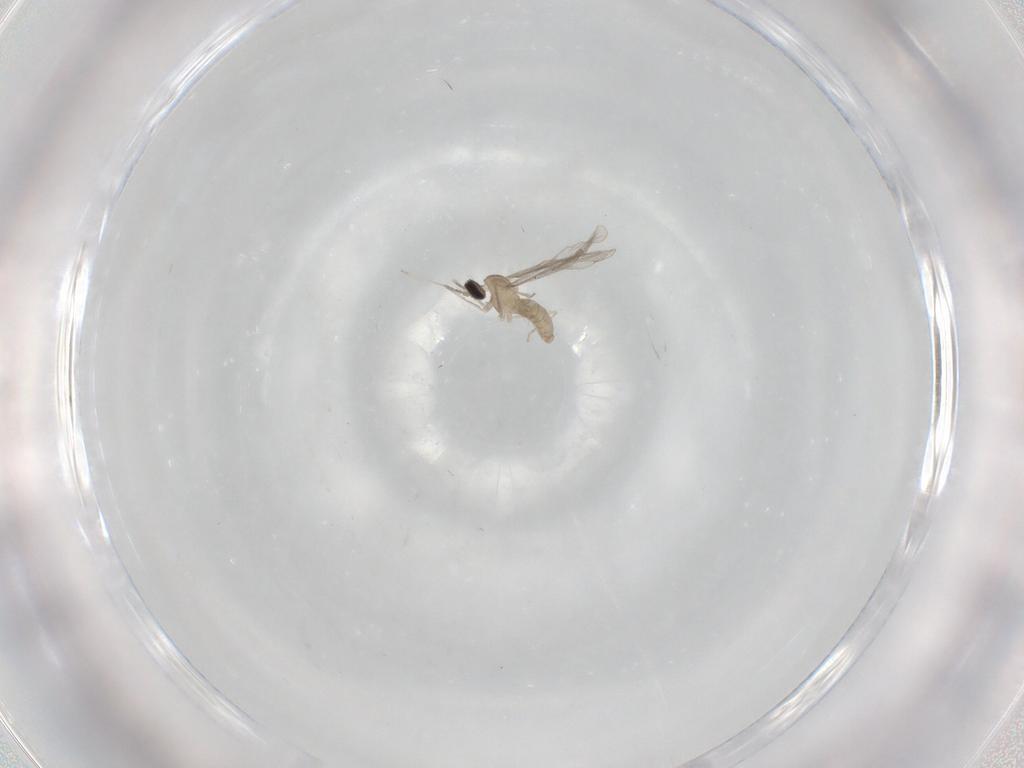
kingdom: Animalia
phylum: Arthropoda
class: Insecta
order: Diptera
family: Cecidomyiidae
